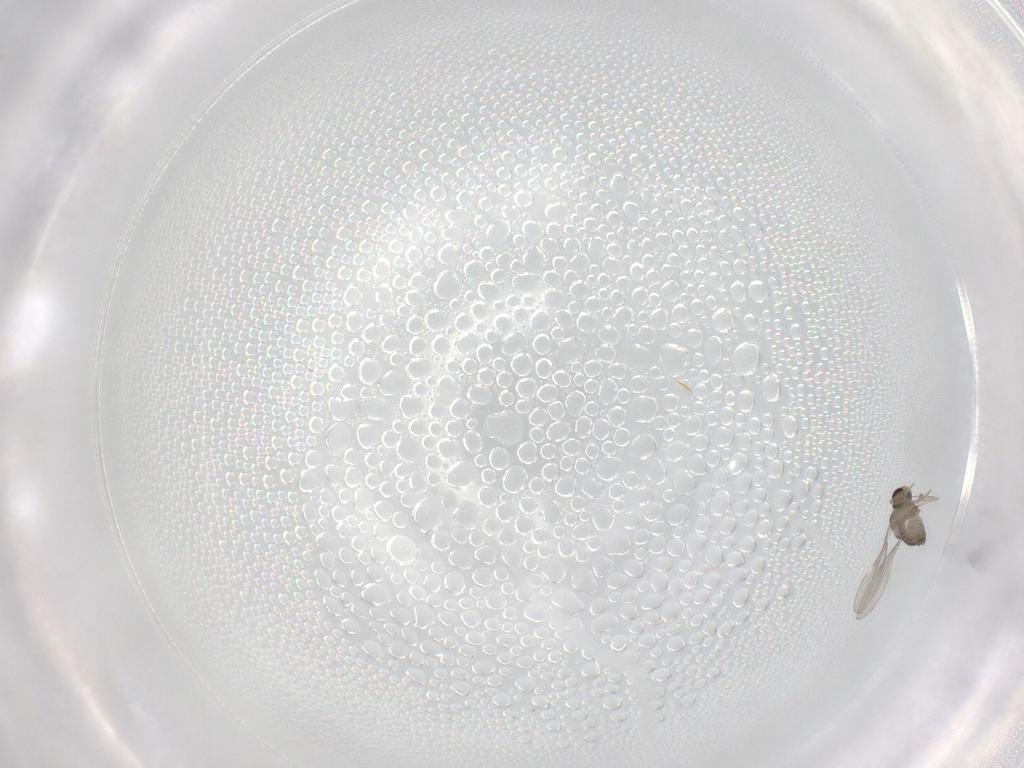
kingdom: Animalia
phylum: Arthropoda
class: Insecta
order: Diptera
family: Cecidomyiidae
